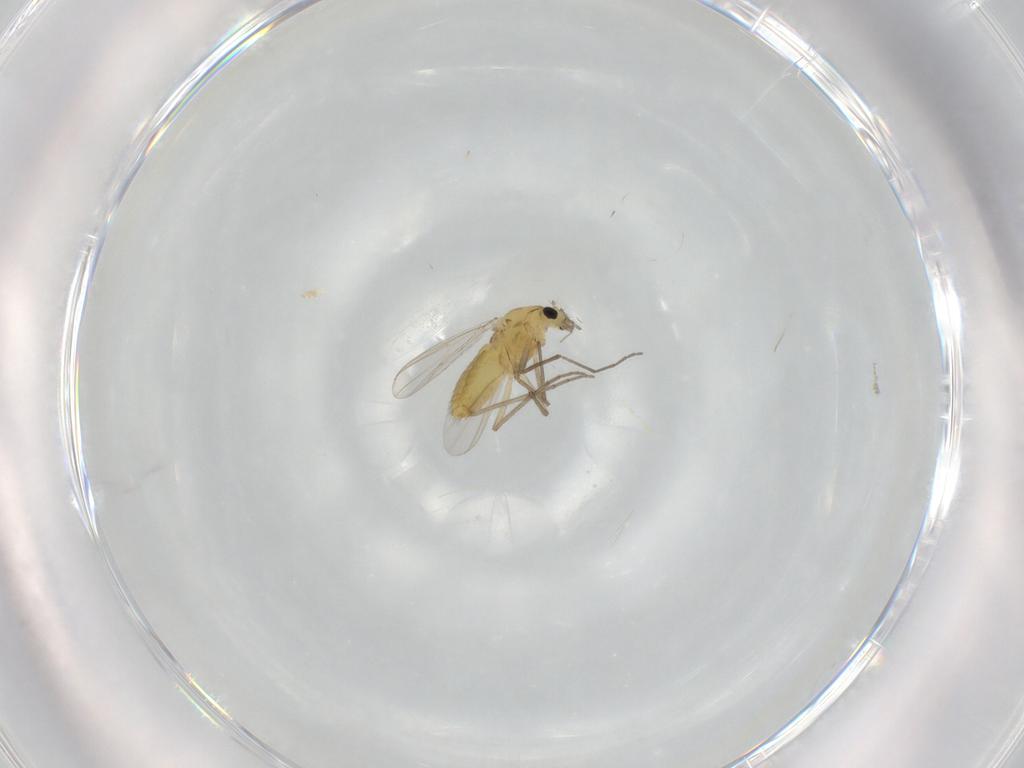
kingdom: Animalia
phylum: Arthropoda
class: Insecta
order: Diptera
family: Chironomidae
